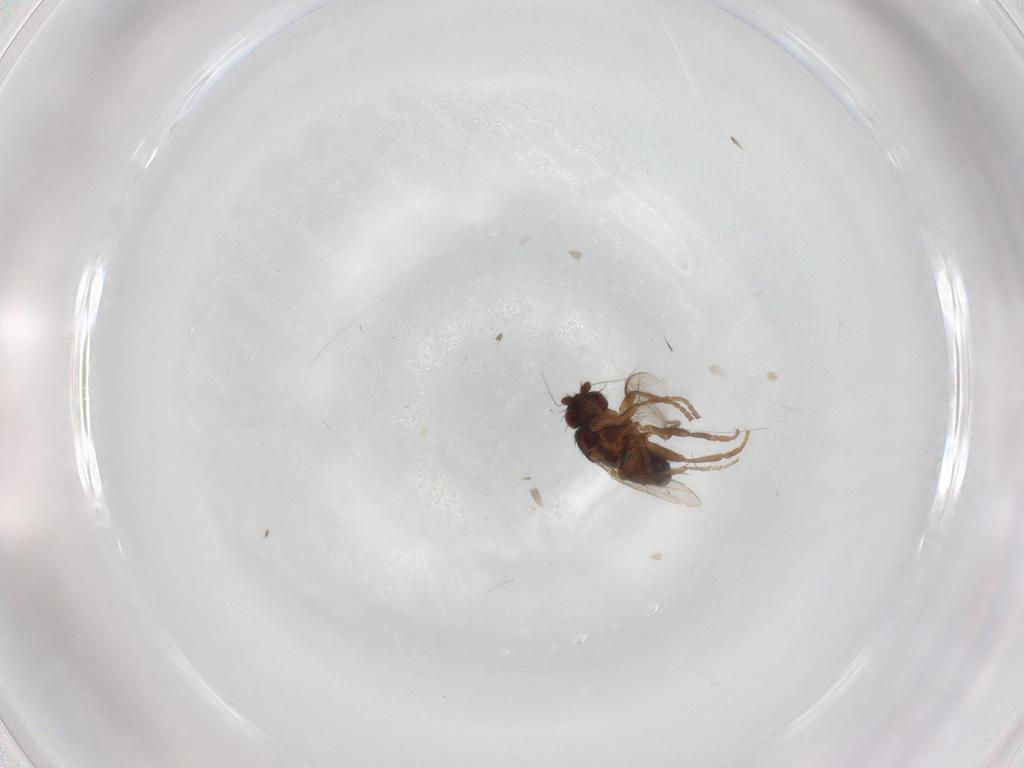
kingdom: Animalia
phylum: Arthropoda
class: Insecta
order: Diptera
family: Sphaeroceridae
